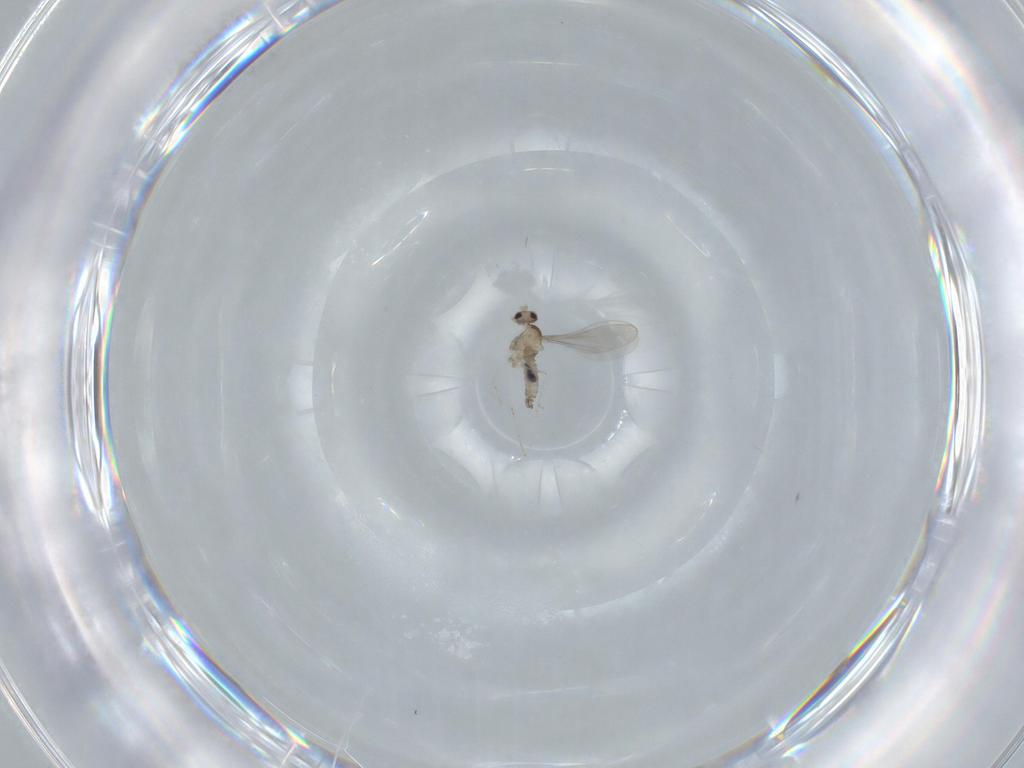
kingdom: Animalia
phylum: Arthropoda
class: Insecta
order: Diptera
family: Cecidomyiidae
